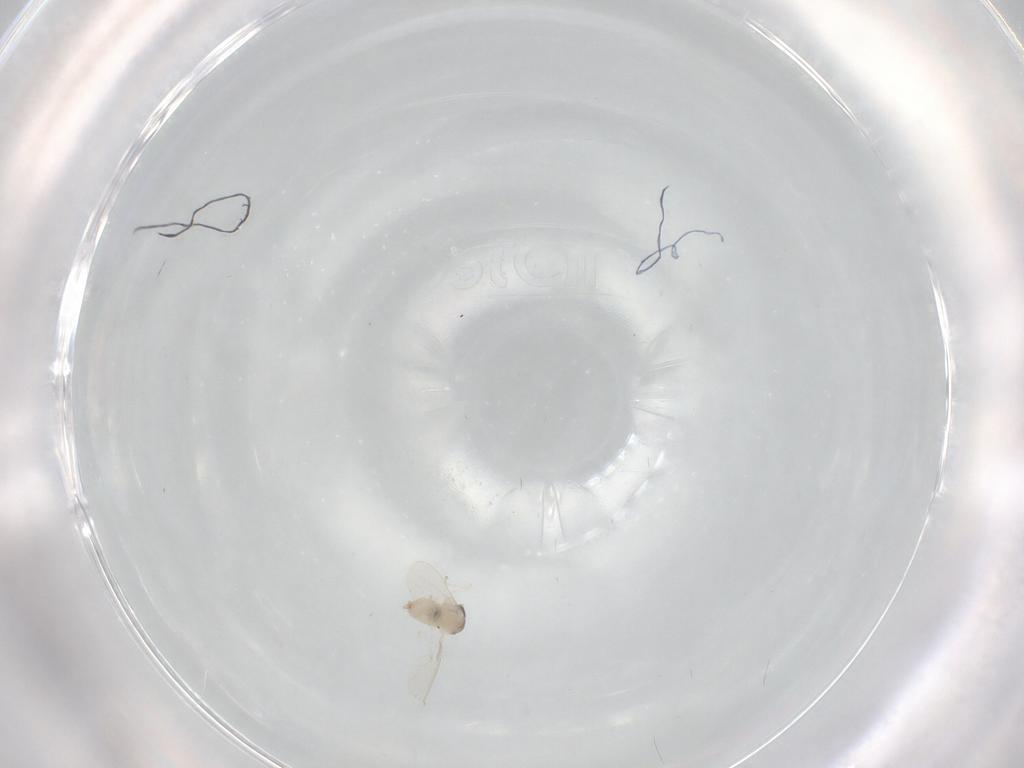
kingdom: Animalia
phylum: Arthropoda
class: Insecta
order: Diptera
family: Cecidomyiidae
